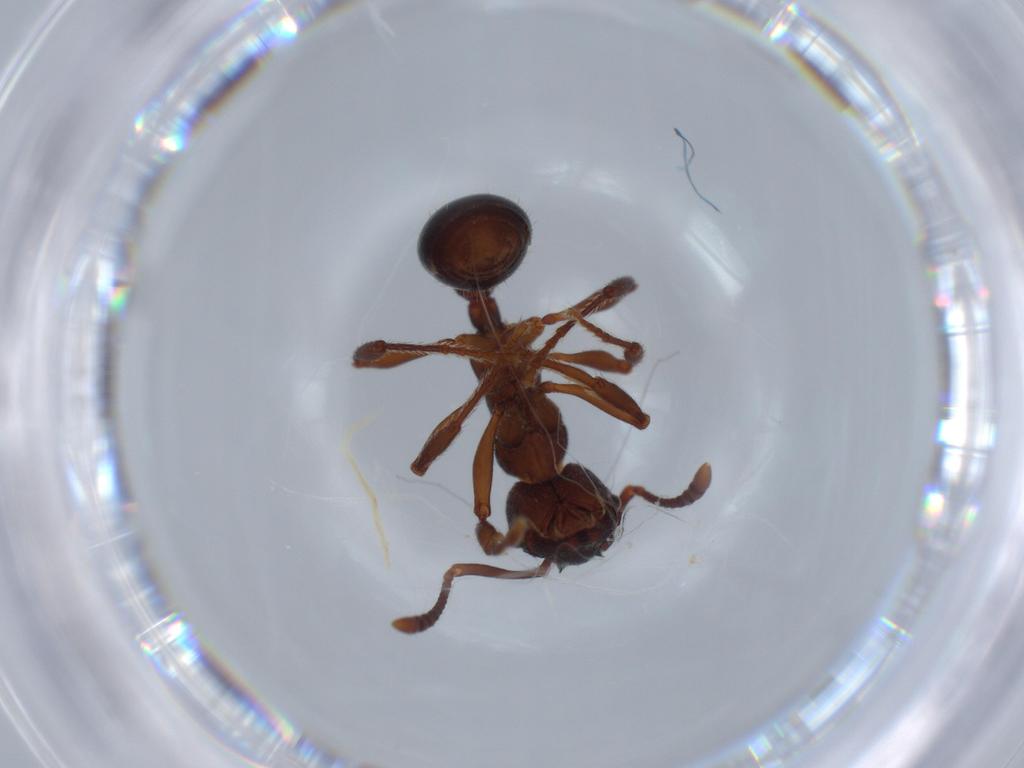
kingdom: Animalia
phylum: Arthropoda
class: Insecta
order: Hymenoptera
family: Formicidae
